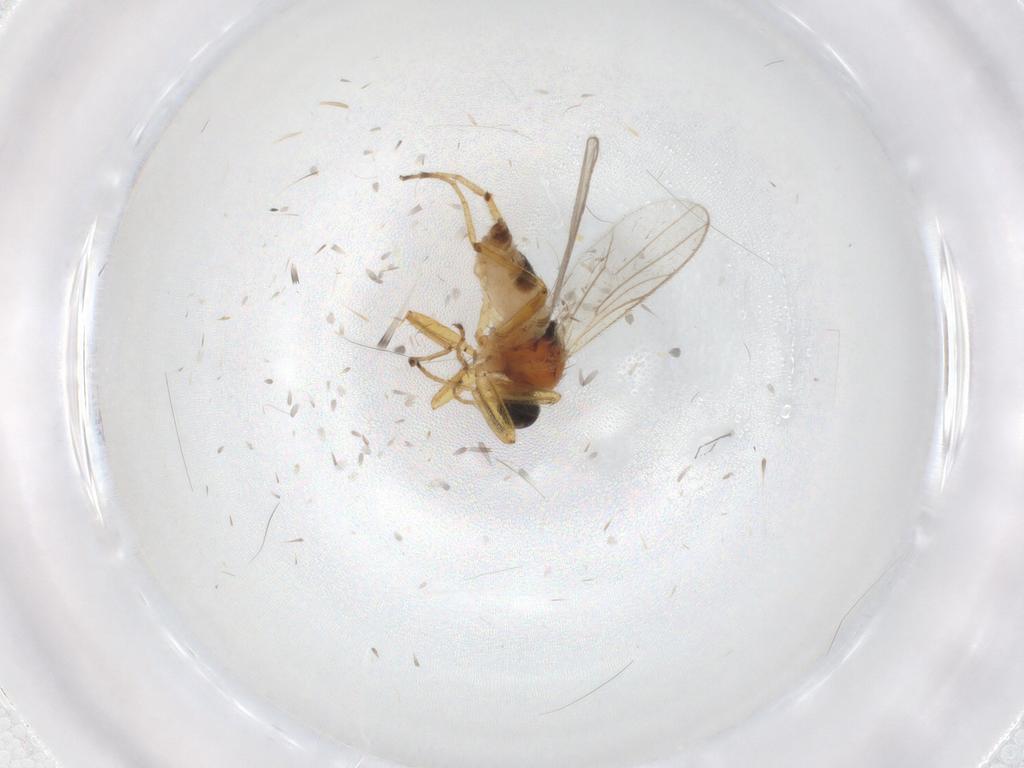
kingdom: Animalia
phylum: Arthropoda
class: Insecta
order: Diptera
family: Hybotidae
